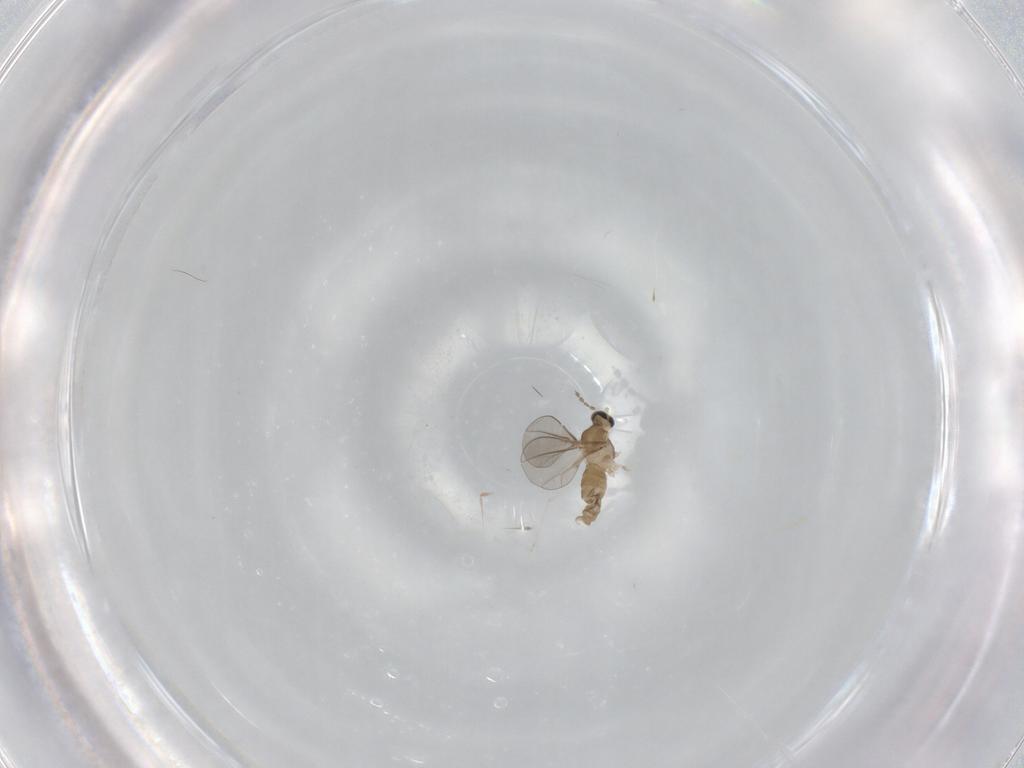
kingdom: Animalia
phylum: Arthropoda
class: Insecta
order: Diptera
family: Cecidomyiidae
